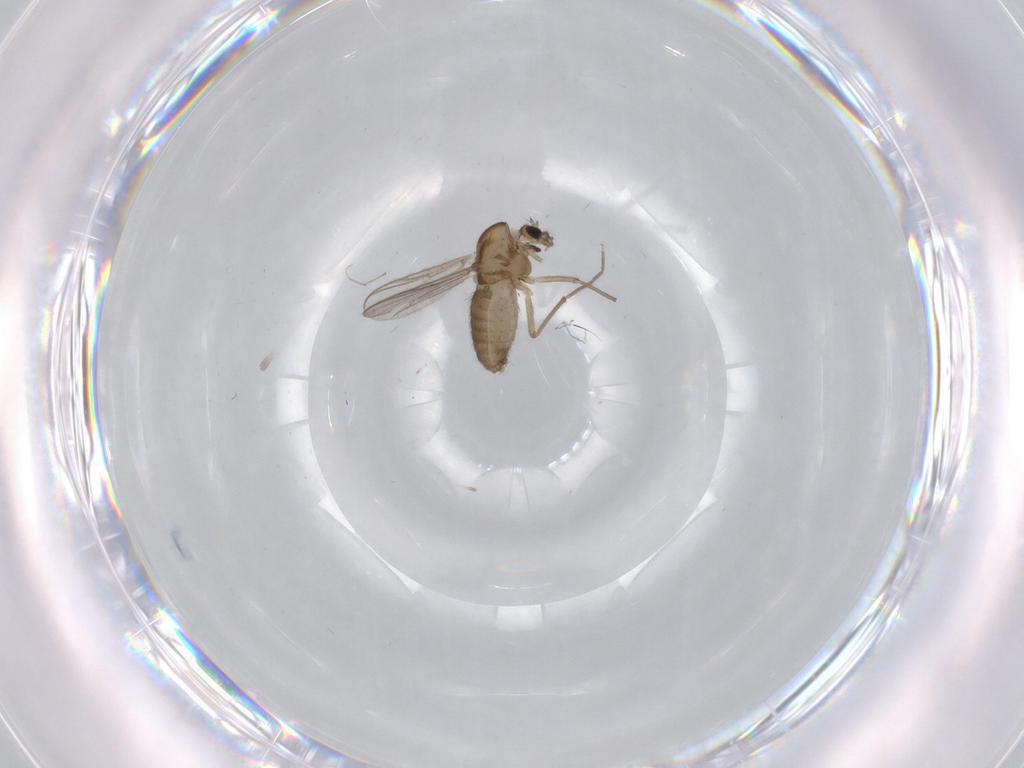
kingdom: Animalia
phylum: Arthropoda
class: Insecta
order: Diptera
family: Chironomidae
